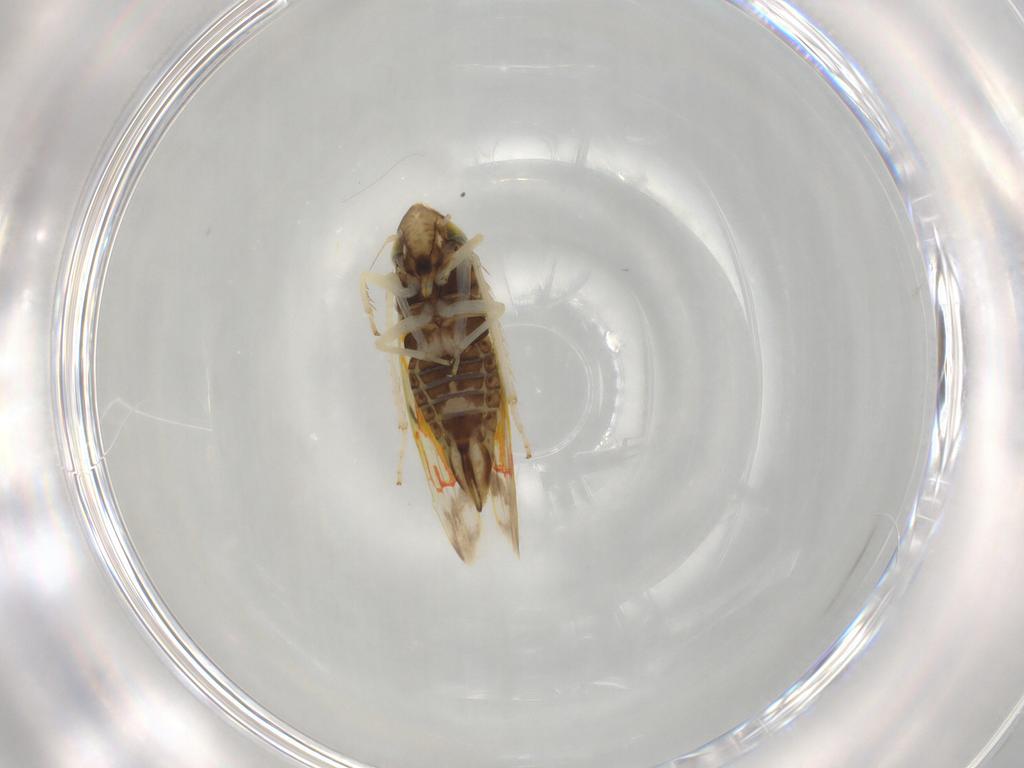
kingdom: Animalia
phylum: Arthropoda
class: Insecta
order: Hemiptera
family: Cicadellidae
